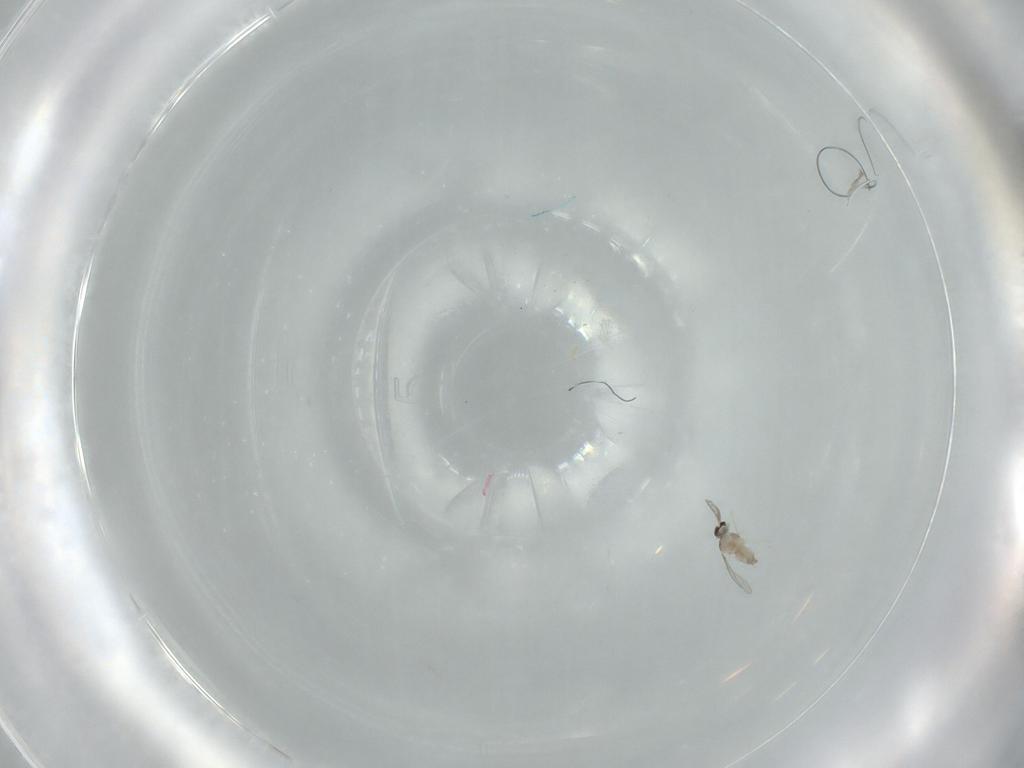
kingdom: Animalia
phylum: Arthropoda
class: Insecta
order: Diptera
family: Cecidomyiidae
